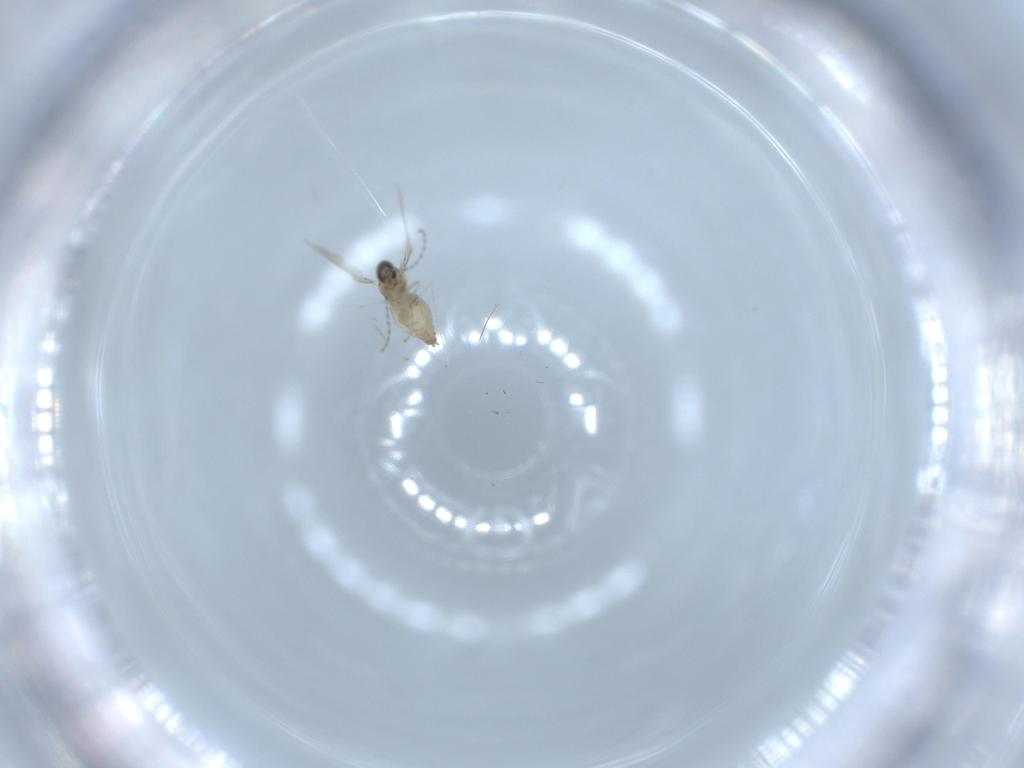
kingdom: Animalia
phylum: Arthropoda
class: Insecta
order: Diptera
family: Cecidomyiidae
